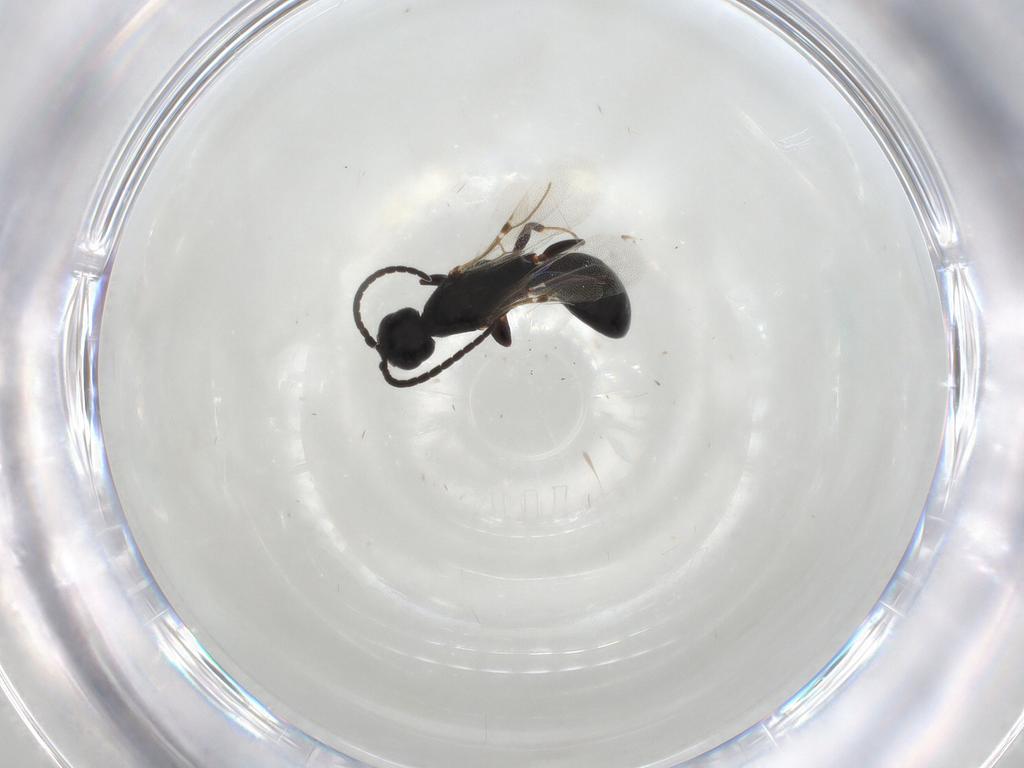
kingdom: Animalia
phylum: Arthropoda
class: Insecta
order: Hymenoptera
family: Bethylidae
